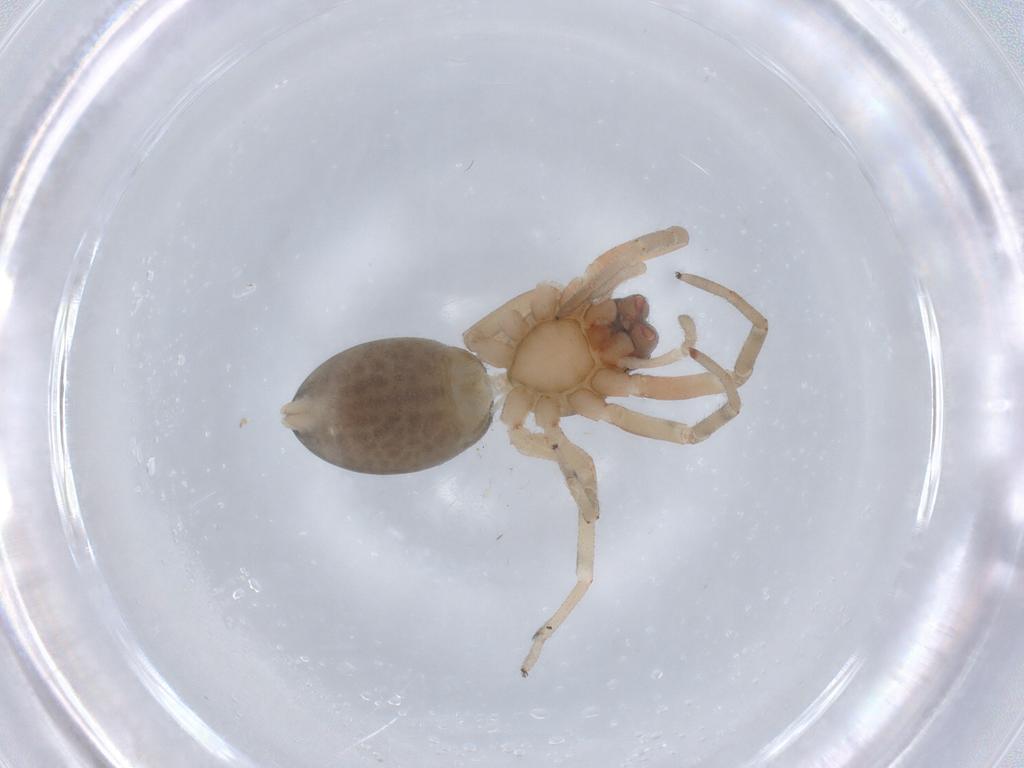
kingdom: Animalia
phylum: Arthropoda
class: Arachnida
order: Araneae
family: Trachelidae
